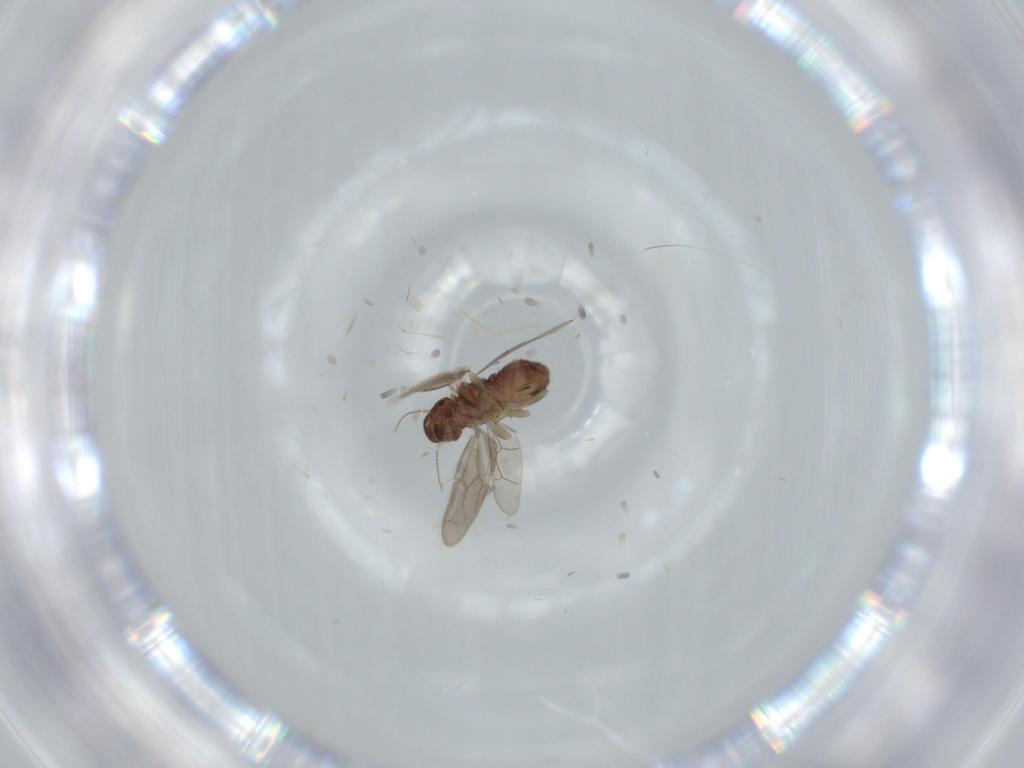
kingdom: Animalia
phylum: Arthropoda
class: Insecta
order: Psocodea
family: Archipsocidae
